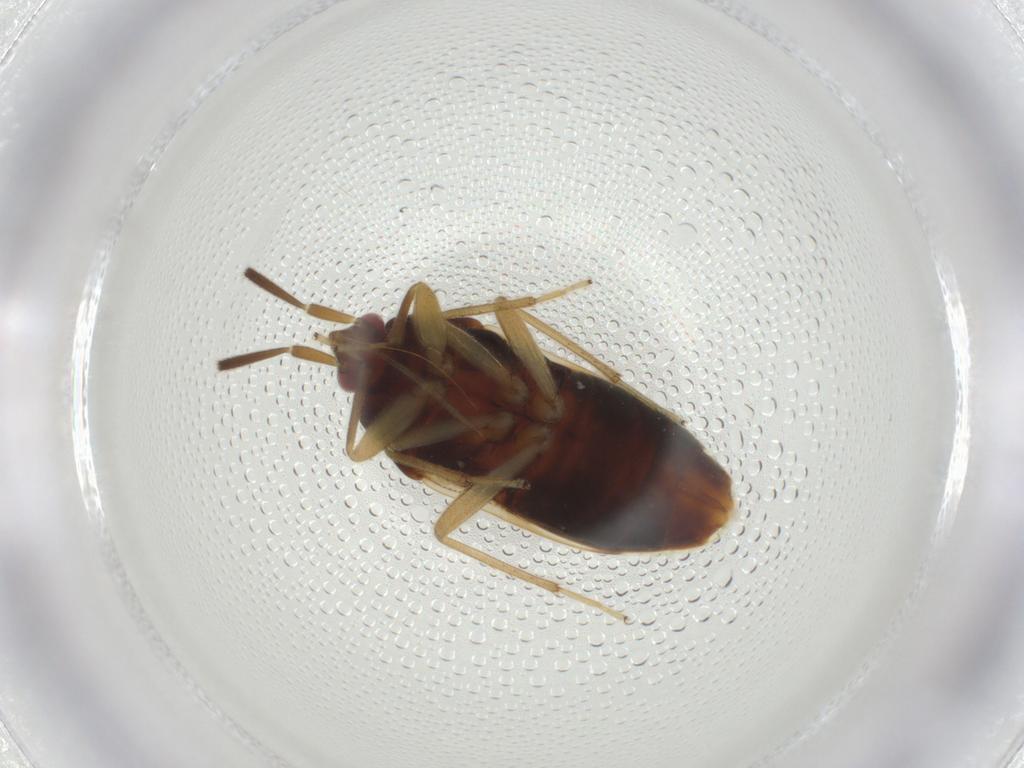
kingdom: Animalia
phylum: Arthropoda
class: Insecta
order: Hemiptera
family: Rhyparochromidae
